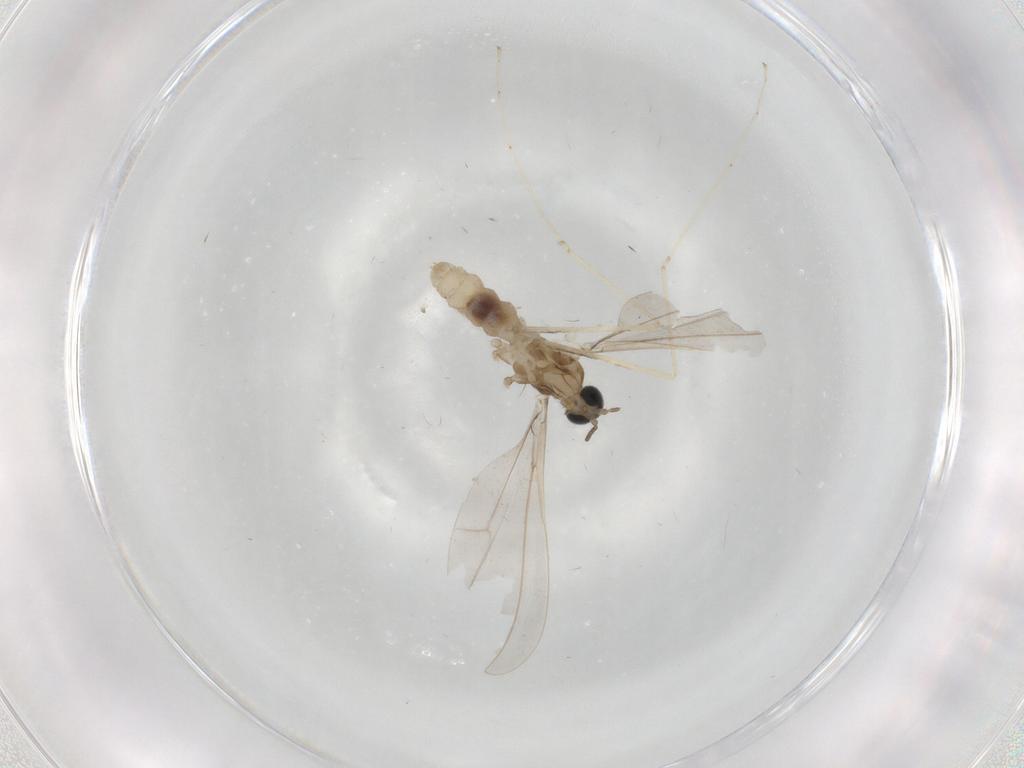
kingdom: Animalia
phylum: Arthropoda
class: Insecta
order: Diptera
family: Cecidomyiidae
